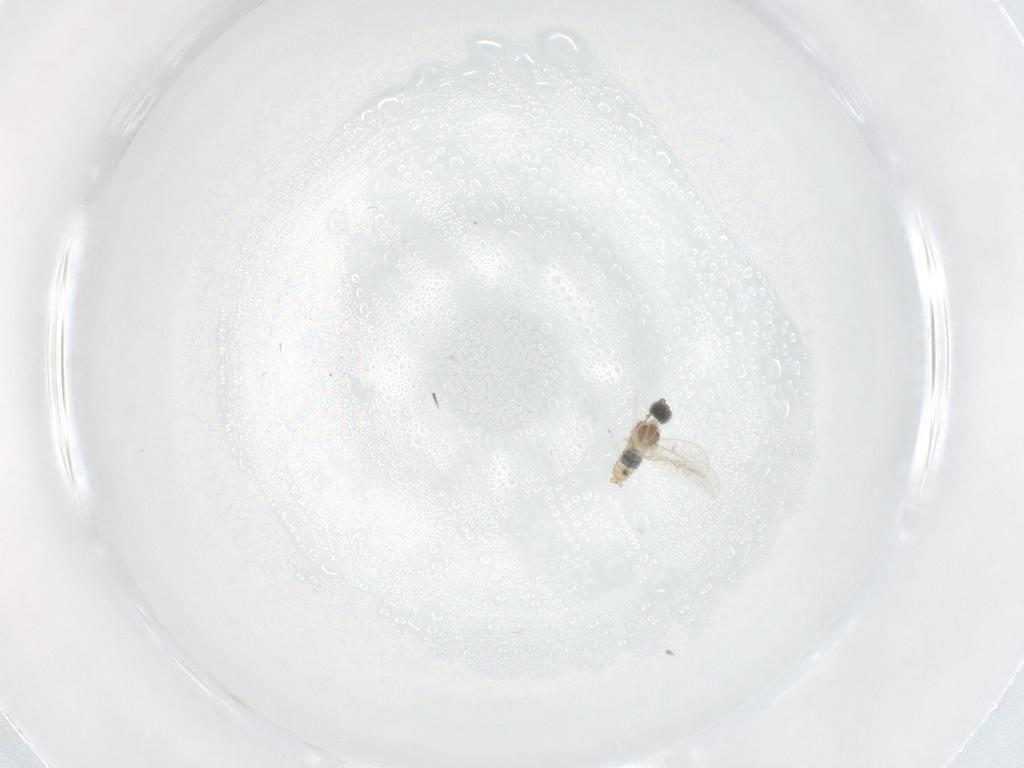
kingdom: Animalia
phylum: Arthropoda
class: Insecta
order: Diptera
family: Cecidomyiidae
